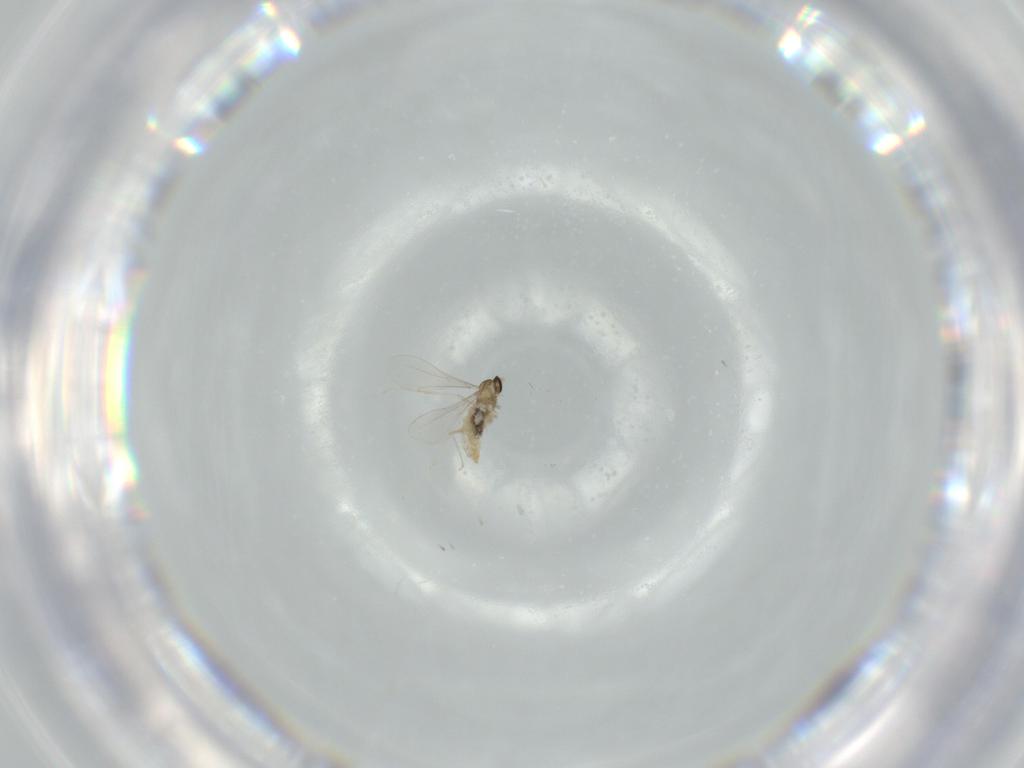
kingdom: Animalia
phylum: Arthropoda
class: Insecta
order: Diptera
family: Cecidomyiidae
